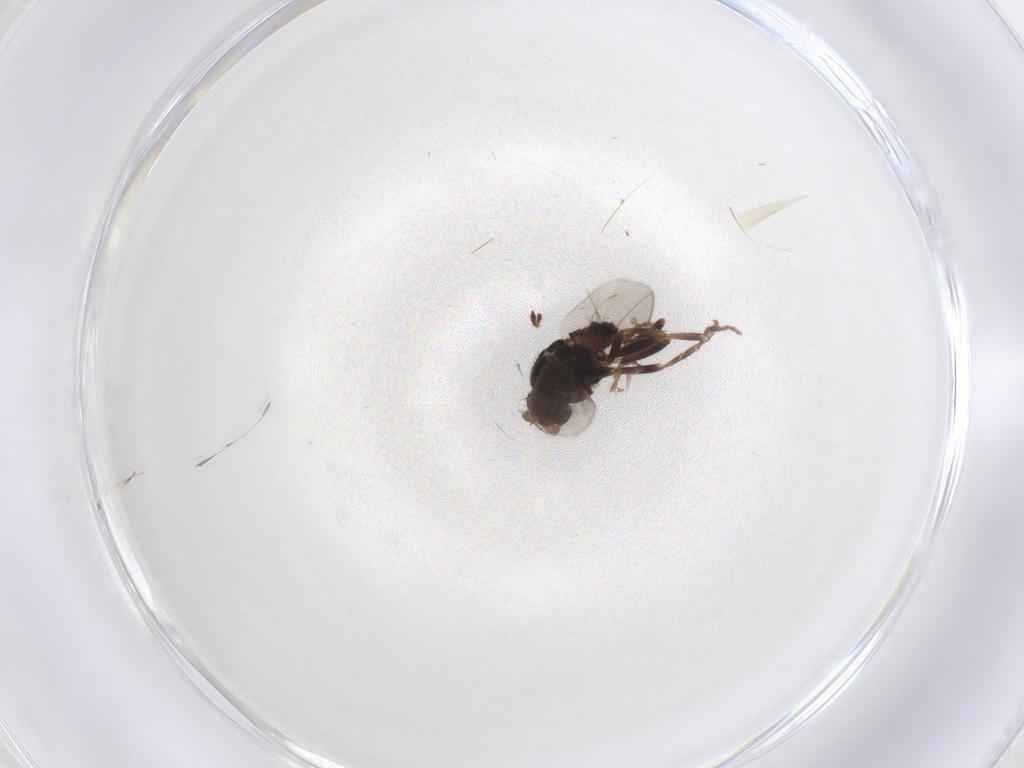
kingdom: Animalia
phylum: Arthropoda
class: Insecta
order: Diptera
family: Sphaeroceridae
